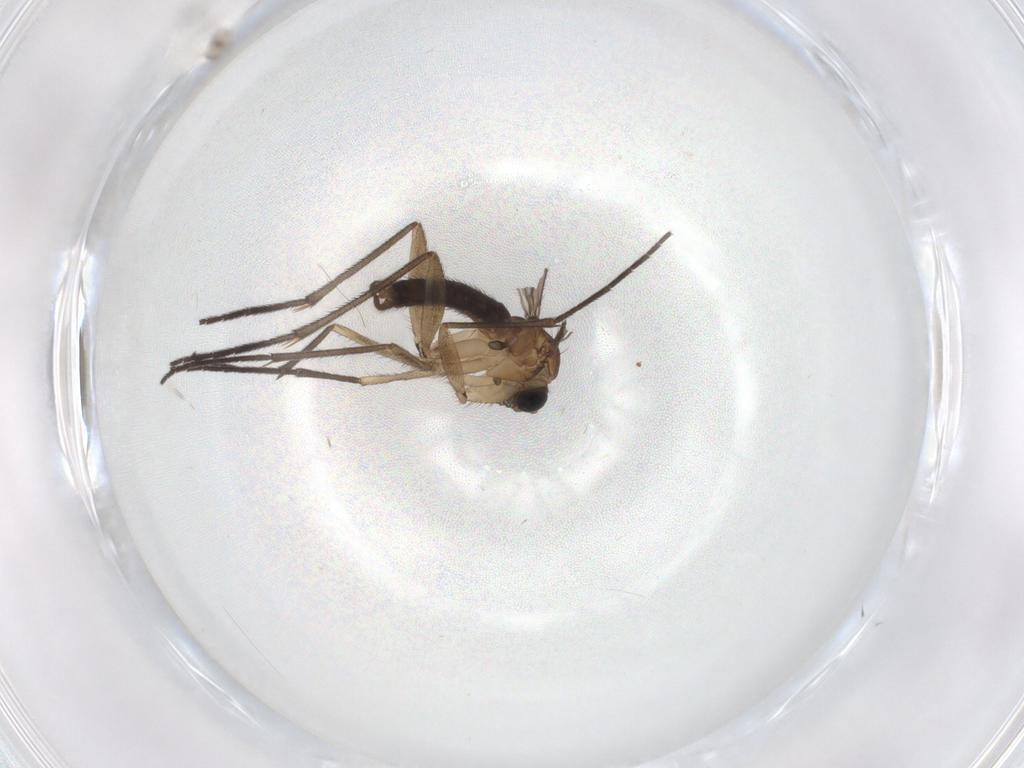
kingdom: Animalia
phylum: Arthropoda
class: Insecta
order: Diptera
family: Cecidomyiidae
